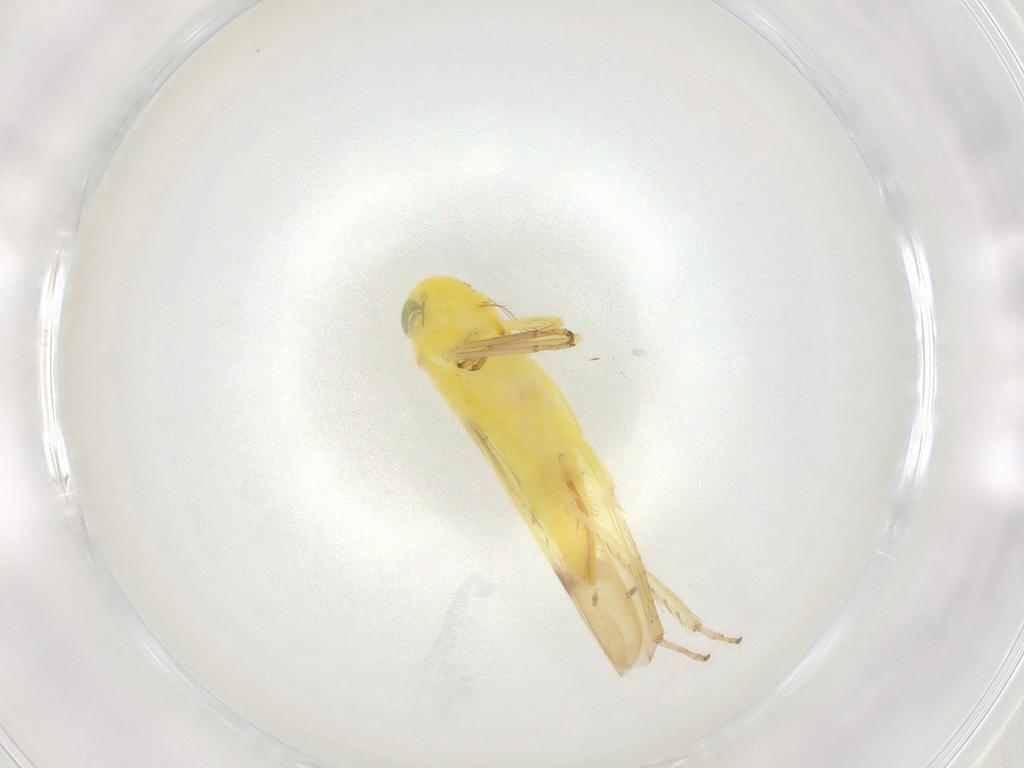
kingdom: Animalia
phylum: Arthropoda
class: Insecta
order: Hemiptera
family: Cicadellidae
